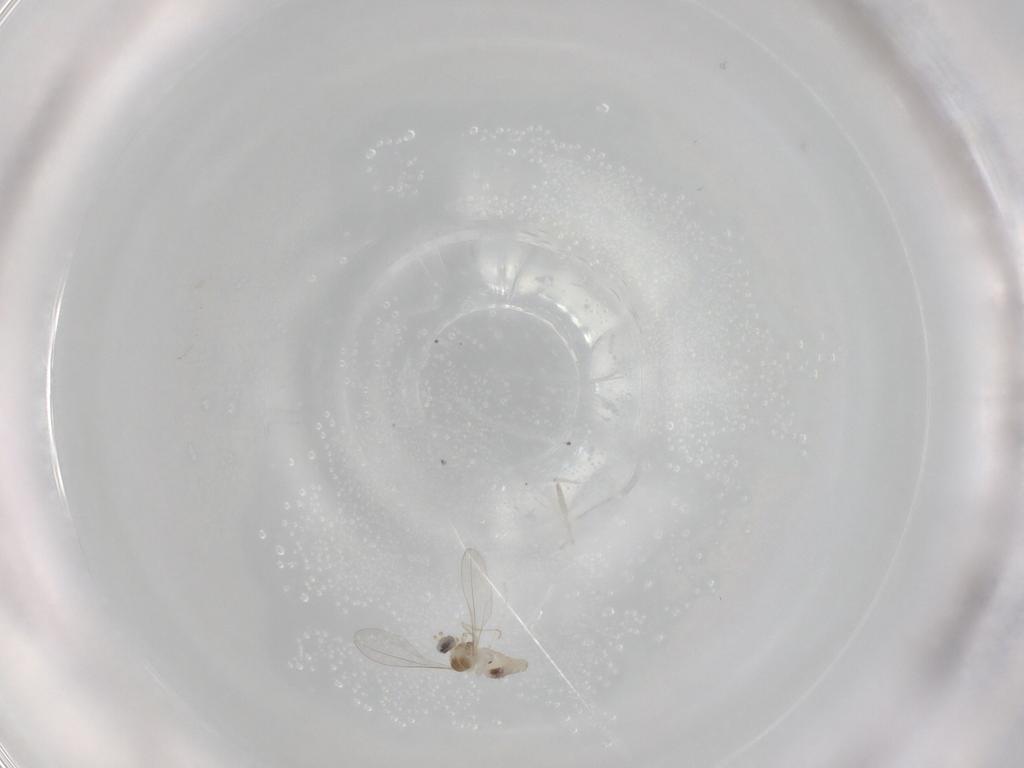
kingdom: Animalia
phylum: Arthropoda
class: Insecta
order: Diptera
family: Cecidomyiidae
